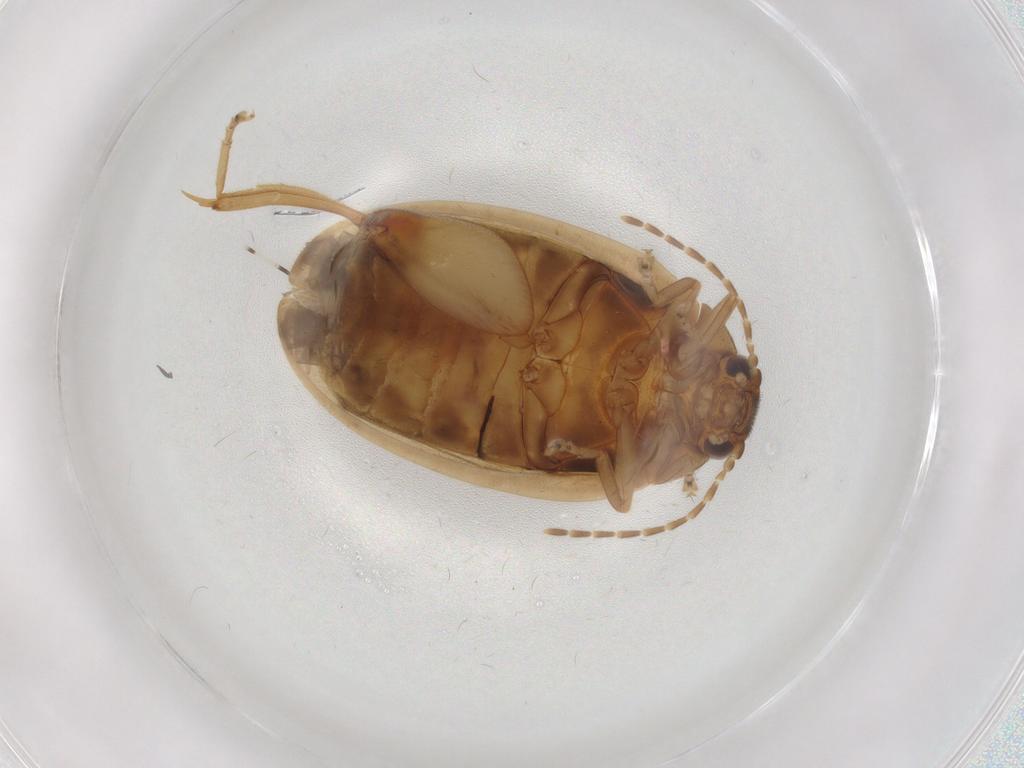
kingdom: Animalia
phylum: Arthropoda
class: Insecta
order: Coleoptera
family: Scirtidae
